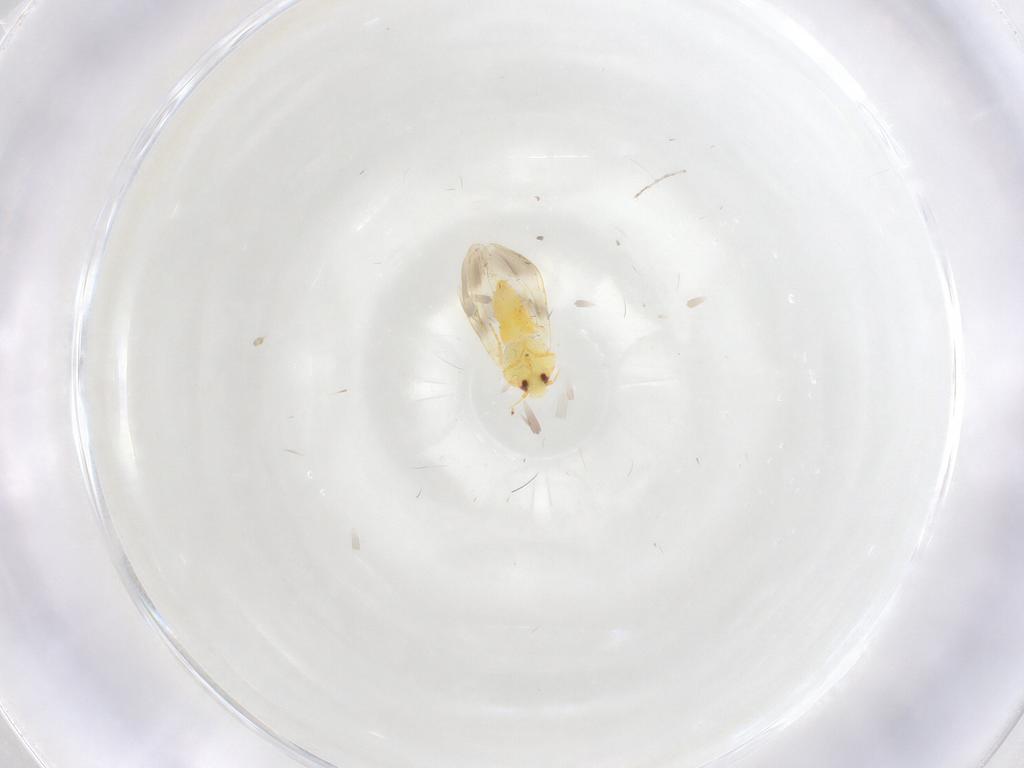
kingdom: Animalia
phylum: Arthropoda
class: Insecta
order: Hemiptera
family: Aleyrodidae
